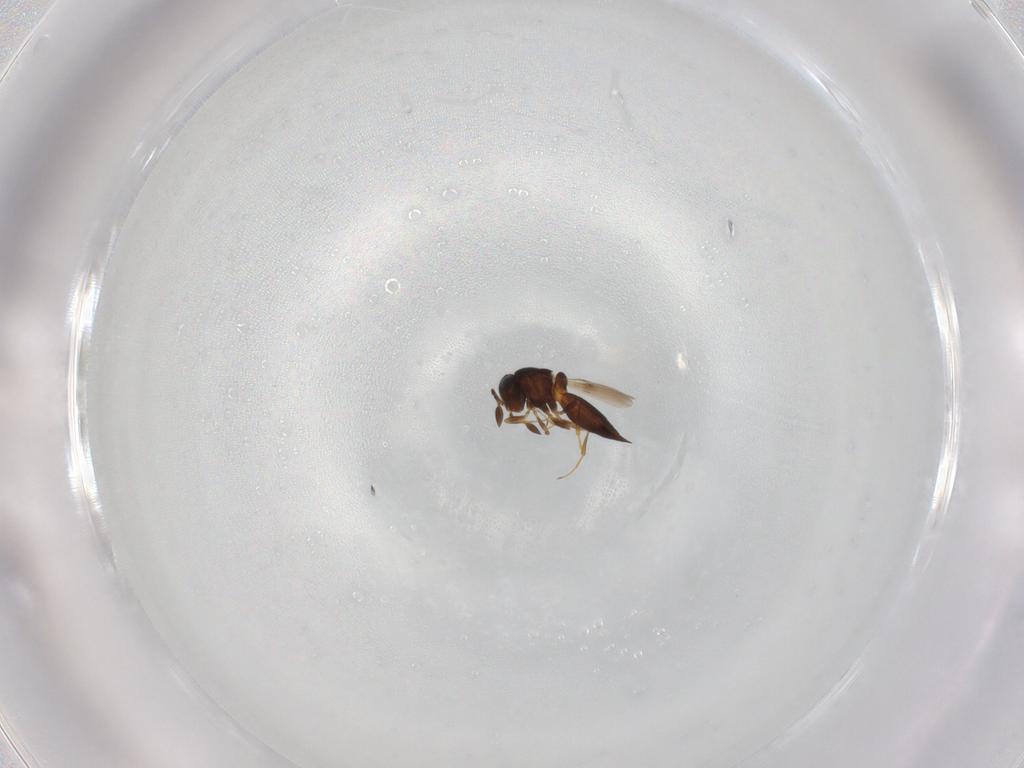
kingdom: Animalia
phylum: Arthropoda
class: Insecta
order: Hymenoptera
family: Scelionidae
